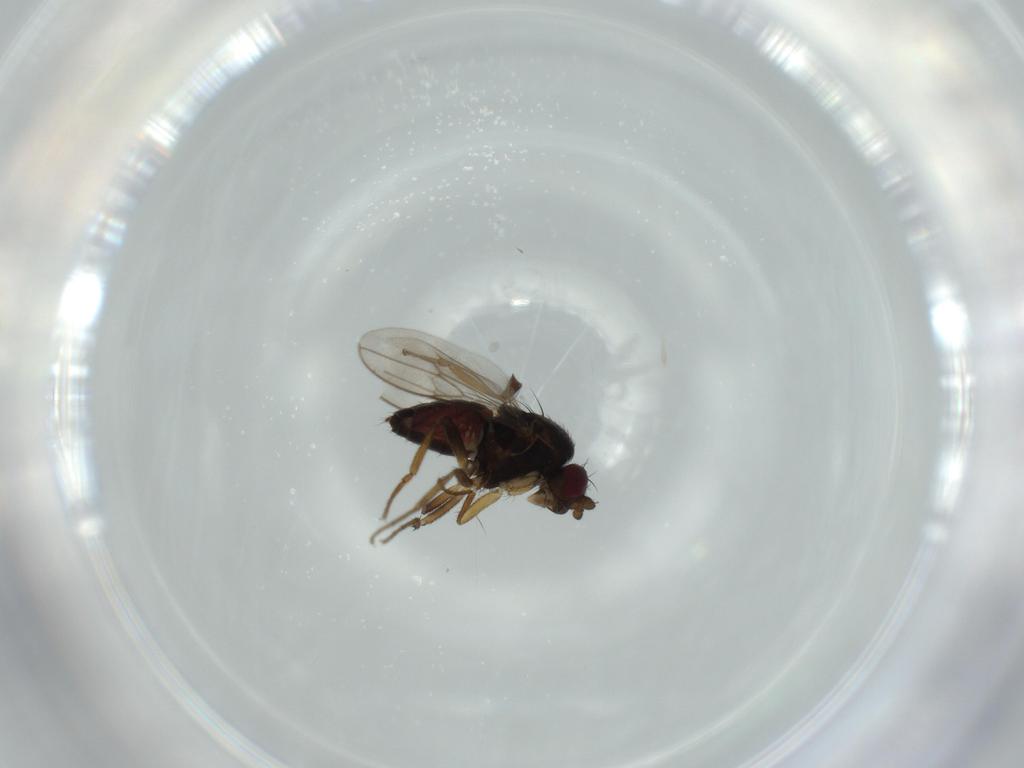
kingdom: Animalia
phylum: Arthropoda
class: Insecta
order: Diptera
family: Sphaeroceridae
